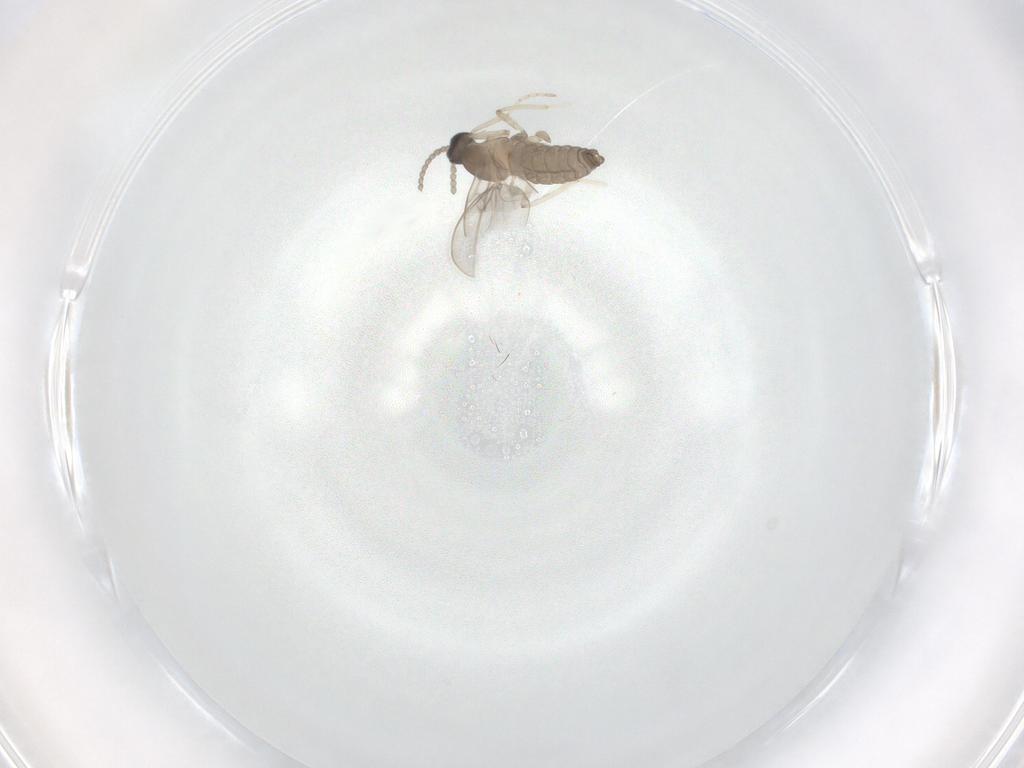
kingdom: Animalia
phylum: Arthropoda
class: Insecta
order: Diptera
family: Cecidomyiidae
